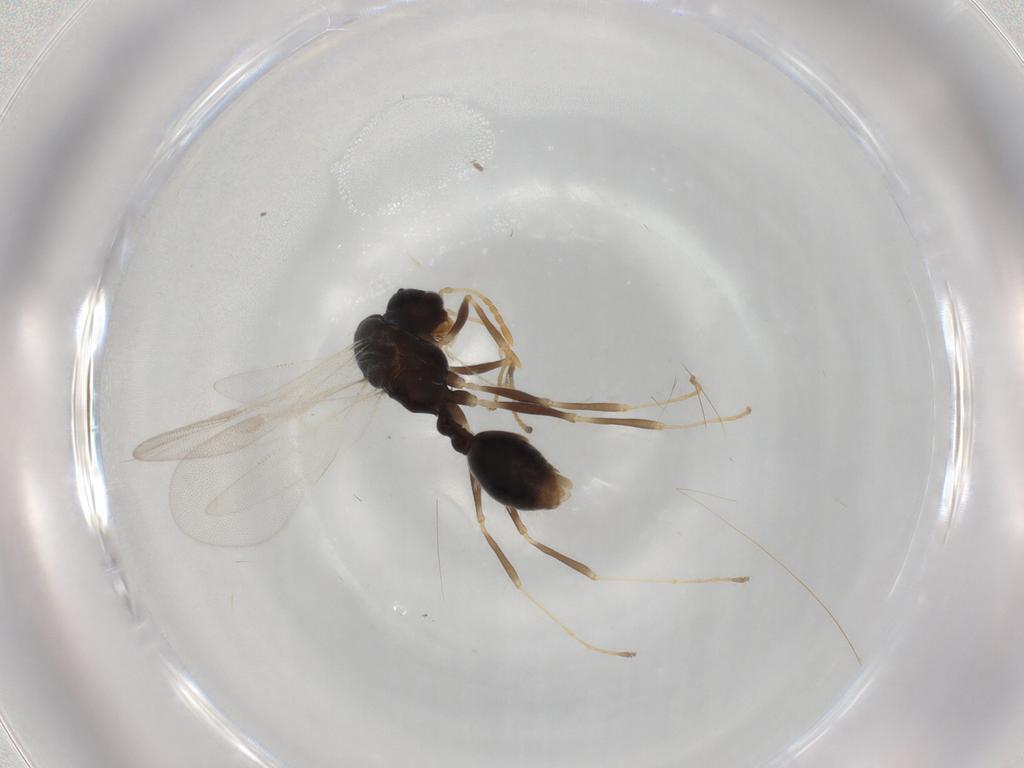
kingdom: Animalia
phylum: Arthropoda
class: Insecta
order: Hymenoptera
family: Formicidae
